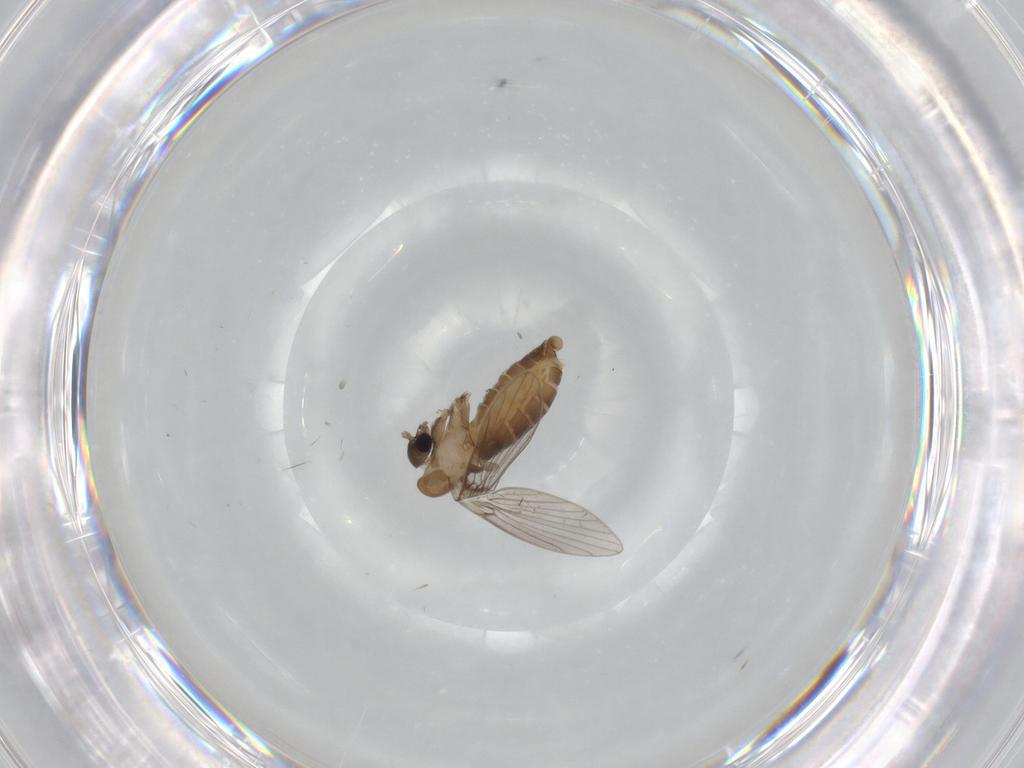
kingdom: Animalia
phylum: Arthropoda
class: Insecta
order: Diptera
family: Psychodidae
